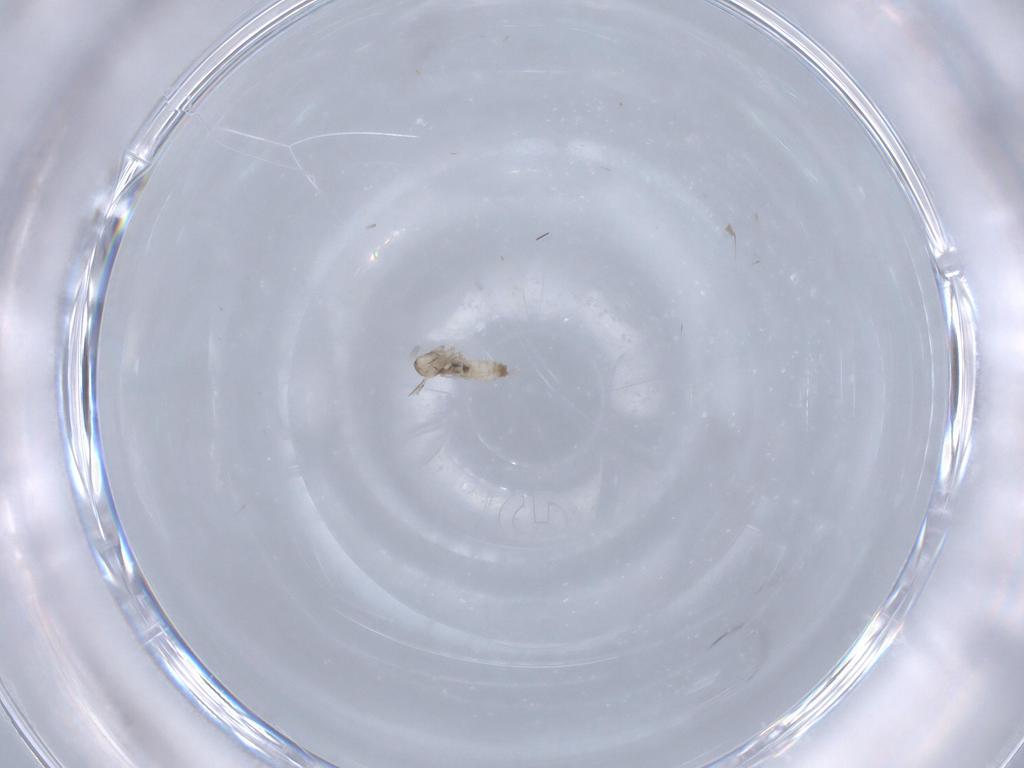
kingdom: Animalia
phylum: Arthropoda
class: Insecta
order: Diptera
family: Cecidomyiidae
